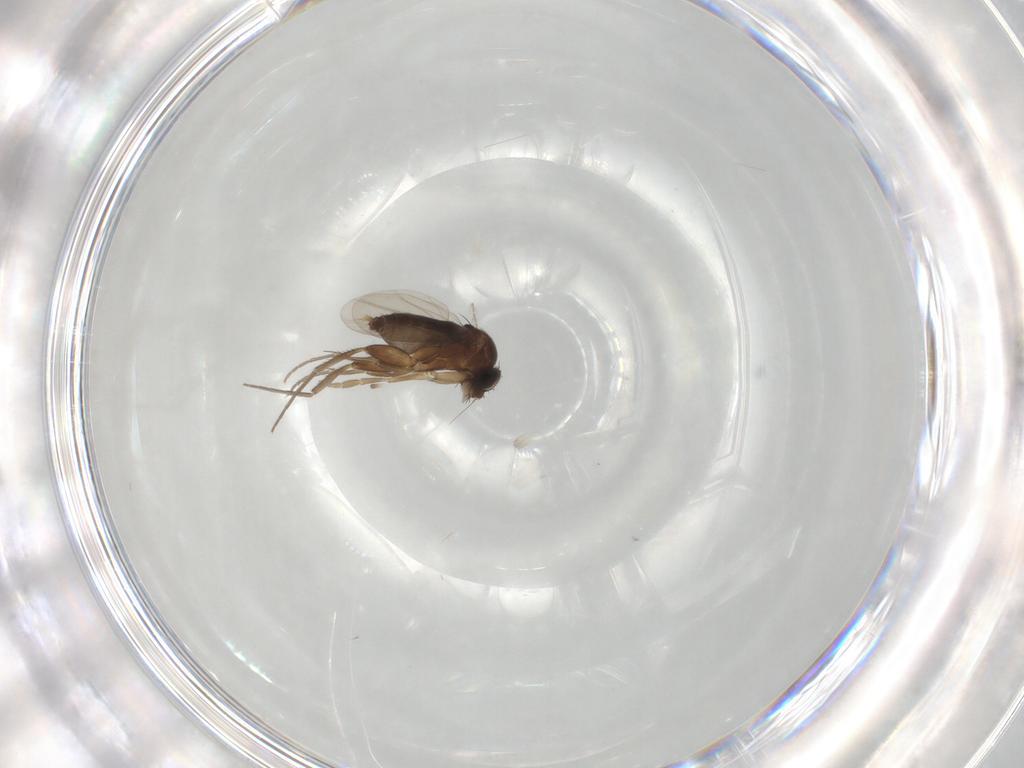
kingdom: Animalia
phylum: Arthropoda
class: Insecta
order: Diptera
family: Phoridae
